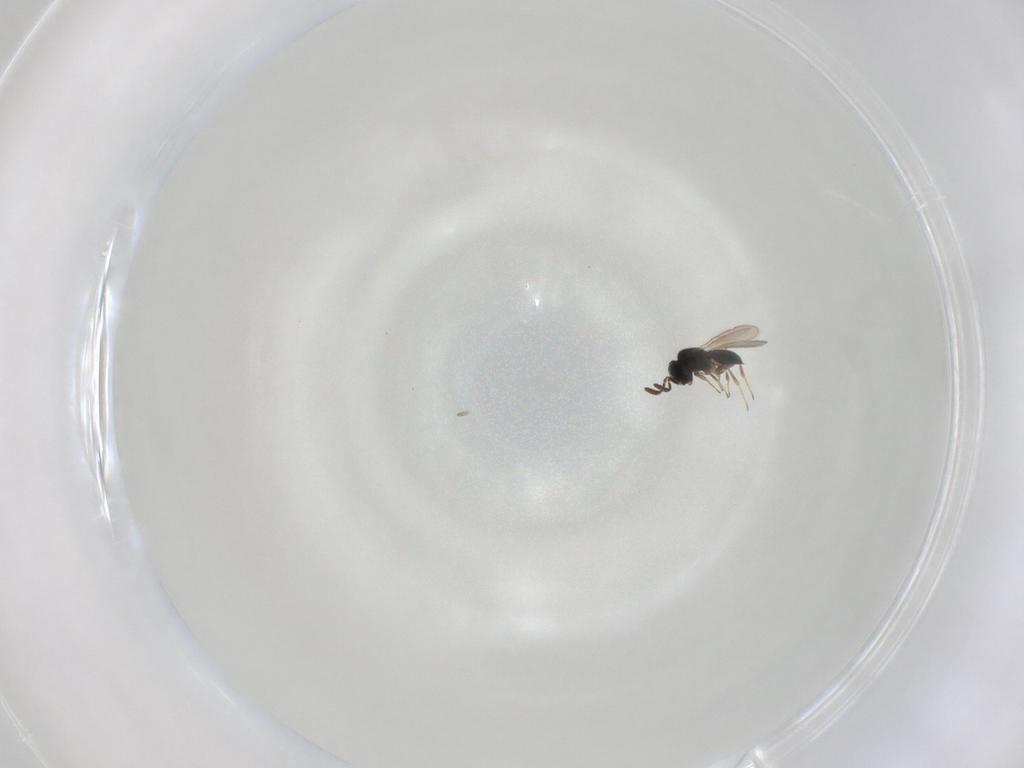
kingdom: Animalia
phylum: Arthropoda
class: Insecta
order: Hymenoptera
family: Scelionidae
